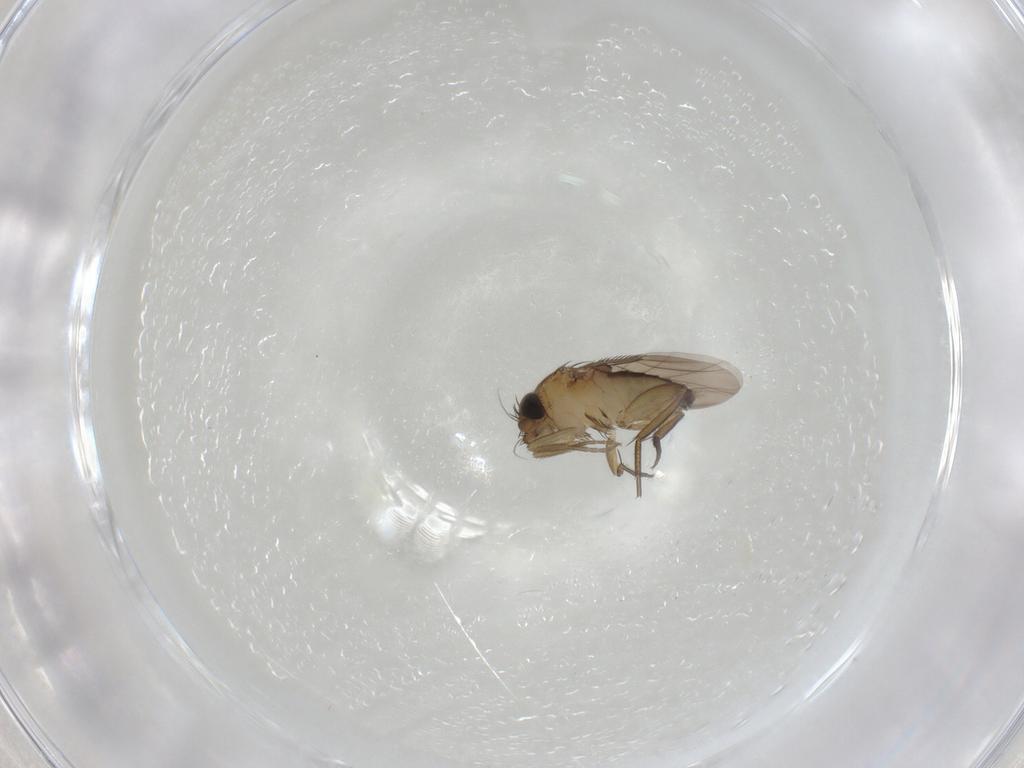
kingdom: Animalia
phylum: Arthropoda
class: Insecta
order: Diptera
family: Phoridae
